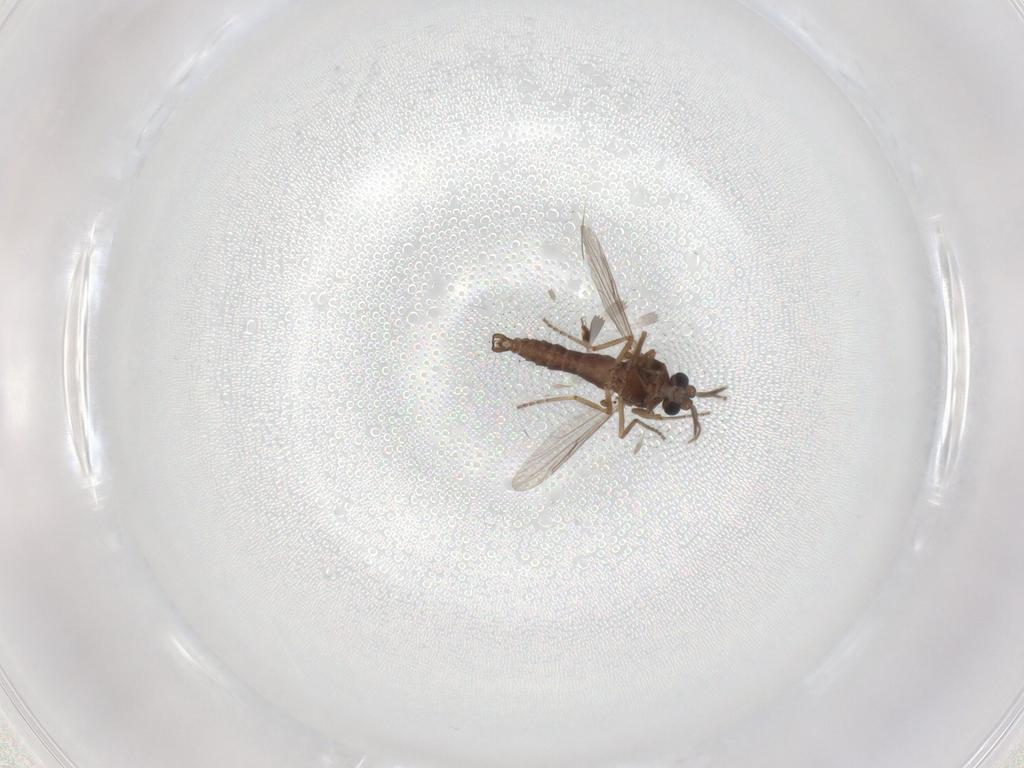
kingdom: Animalia
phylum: Arthropoda
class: Insecta
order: Diptera
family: Ceratopogonidae
